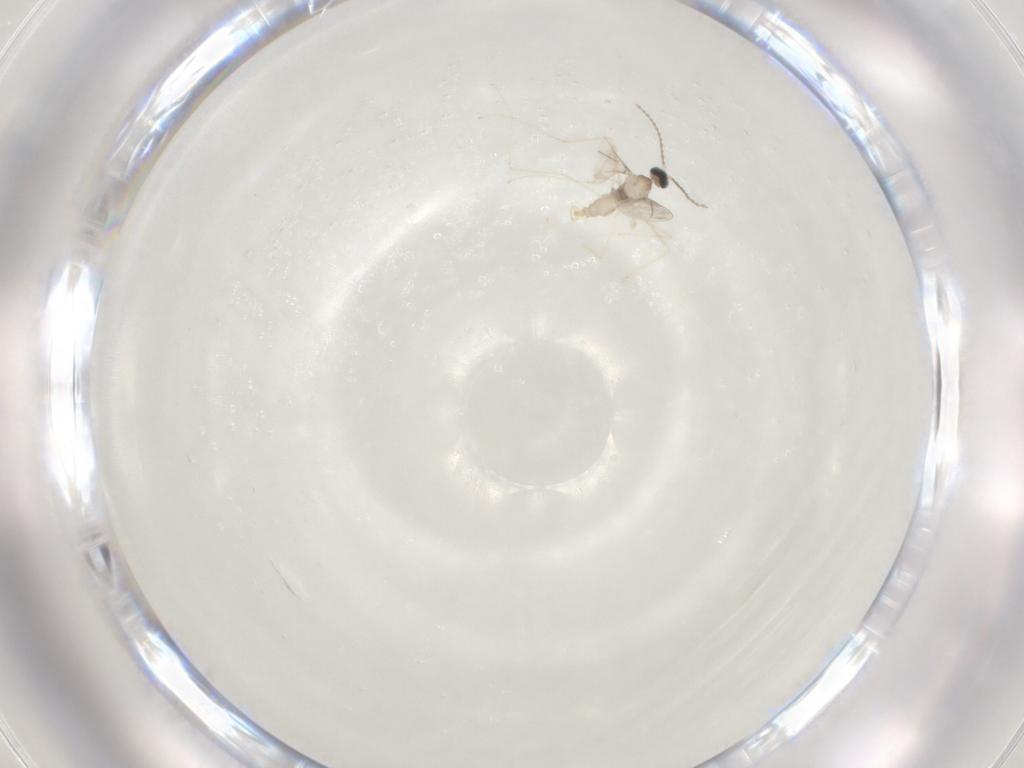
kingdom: Animalia
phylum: Arthropoda
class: Insecta
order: Diptera
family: Cecidomyiidae
